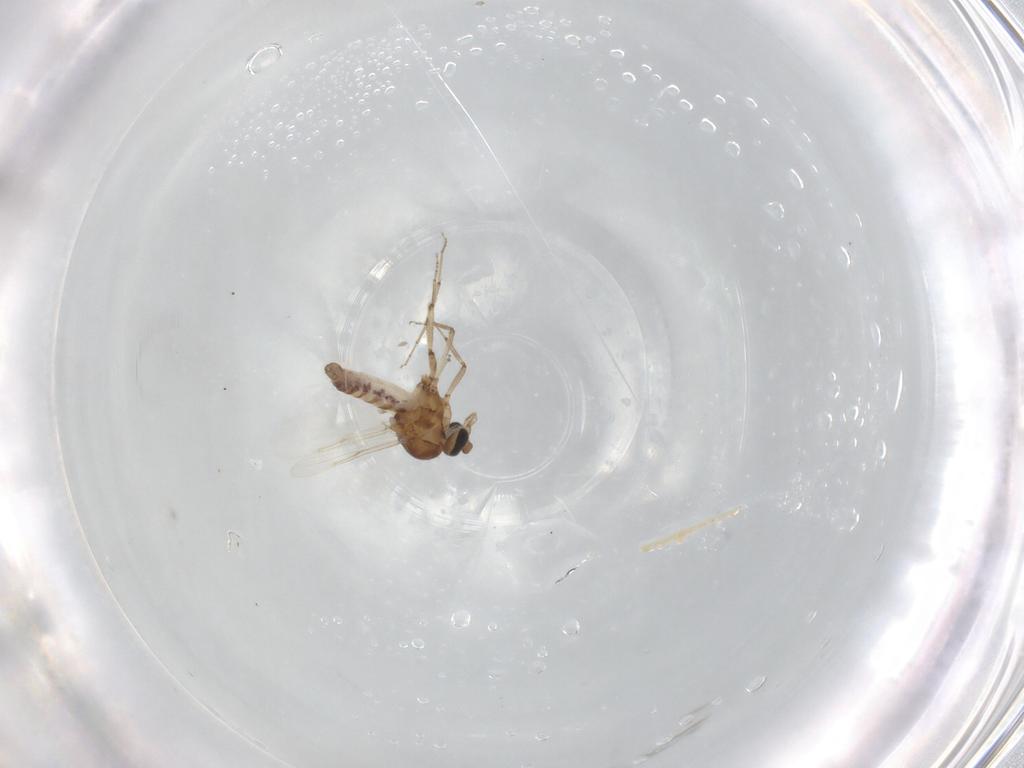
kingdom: Animalia
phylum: Arthropoda
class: Insecta
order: Diptera
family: Ceratopogonidae
